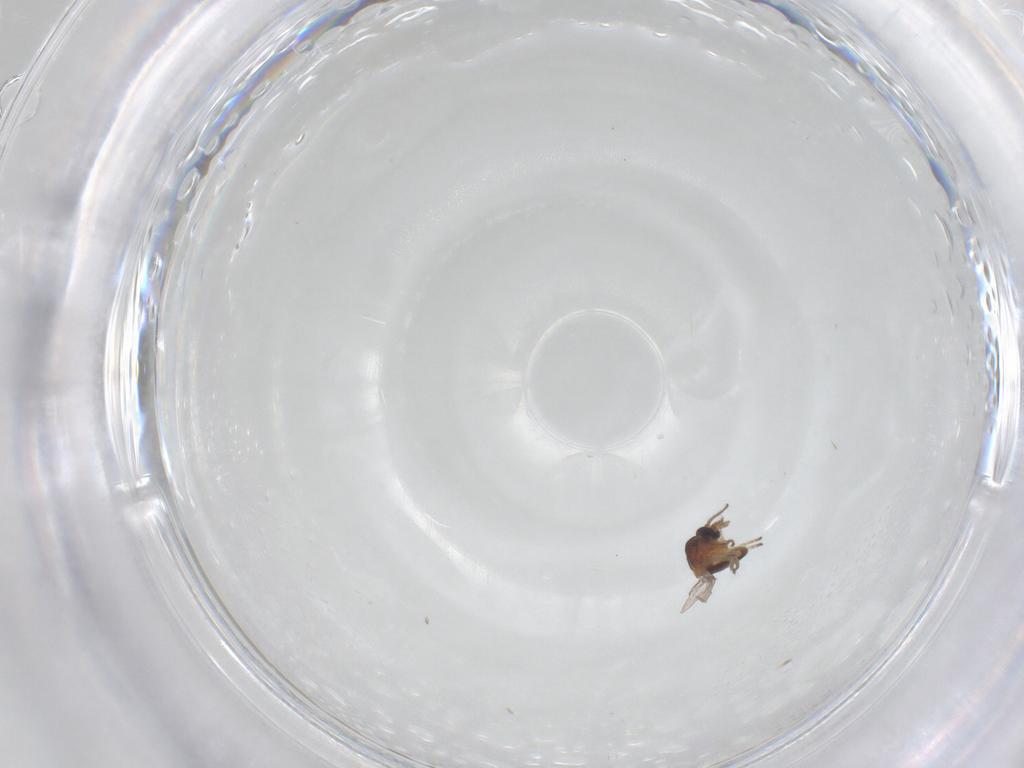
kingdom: Animalia
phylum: Arthropoda
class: Insecta
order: Diptera
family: Ceratopogonidae
